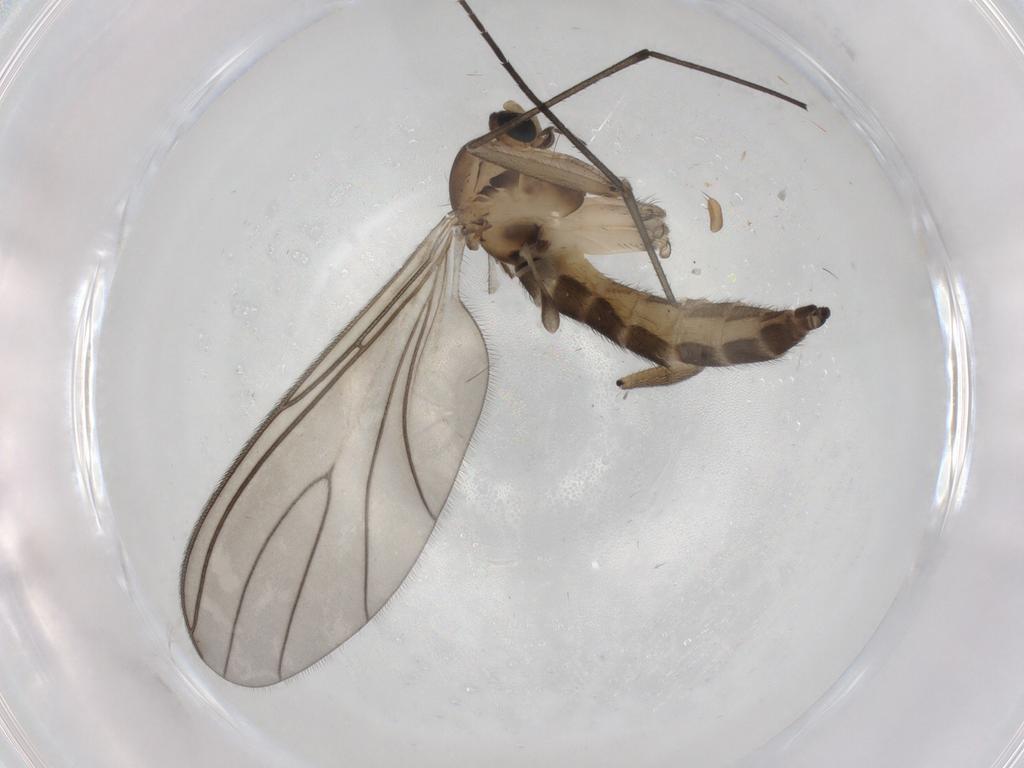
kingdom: Animalia
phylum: Arthropoda
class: Insecta
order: Diptera
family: Sciaridae
